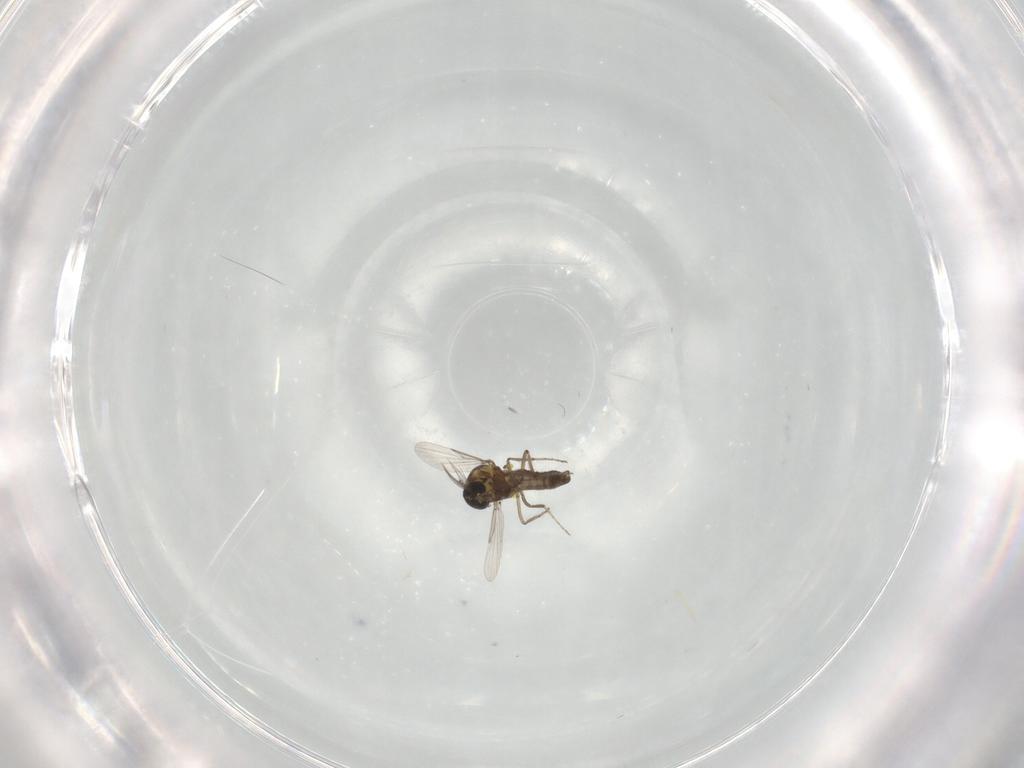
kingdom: Animalia
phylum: Arthropoda
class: Insecta
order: Diptera
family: Ceratopogonidae
